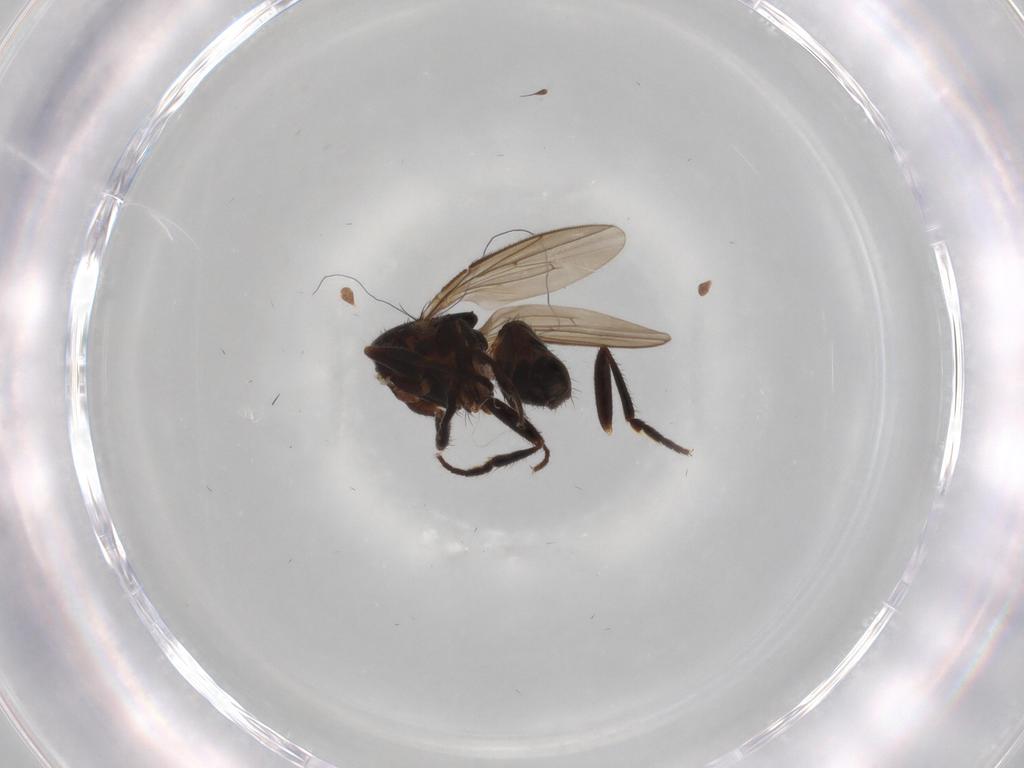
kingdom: Animalia
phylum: Arthropoda
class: Insecta
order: Diptera
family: Sphaeroceridae
